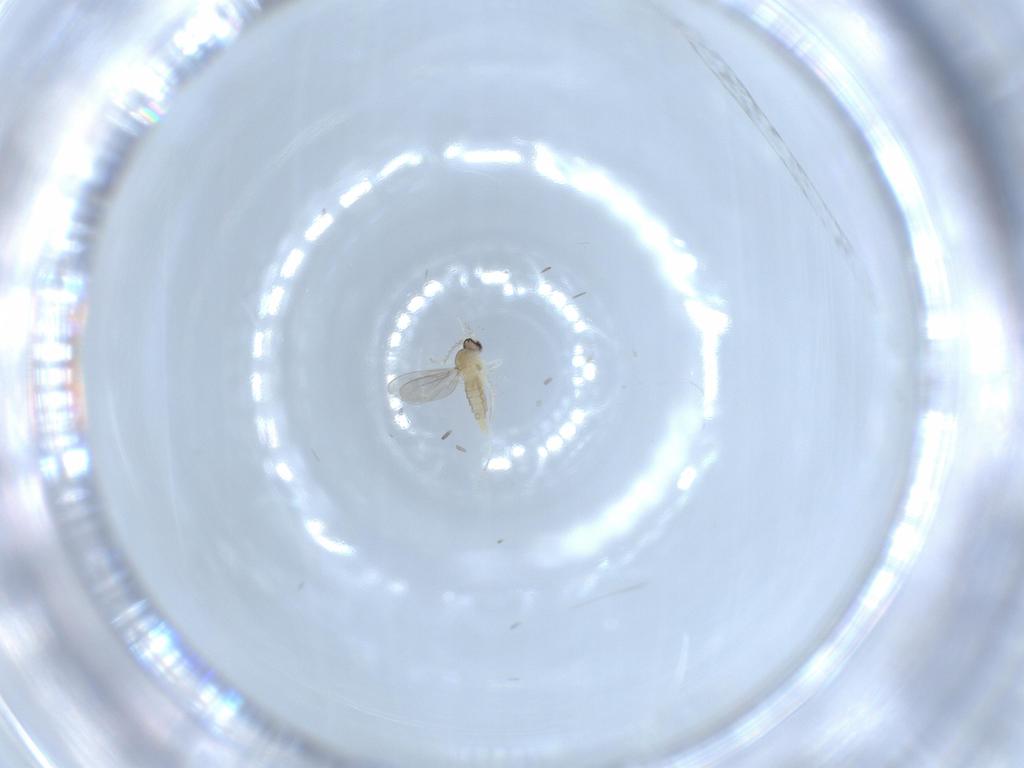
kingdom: Animalia
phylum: Arthropoda
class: Insecta
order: Diptera
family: Cecidomyiidae
